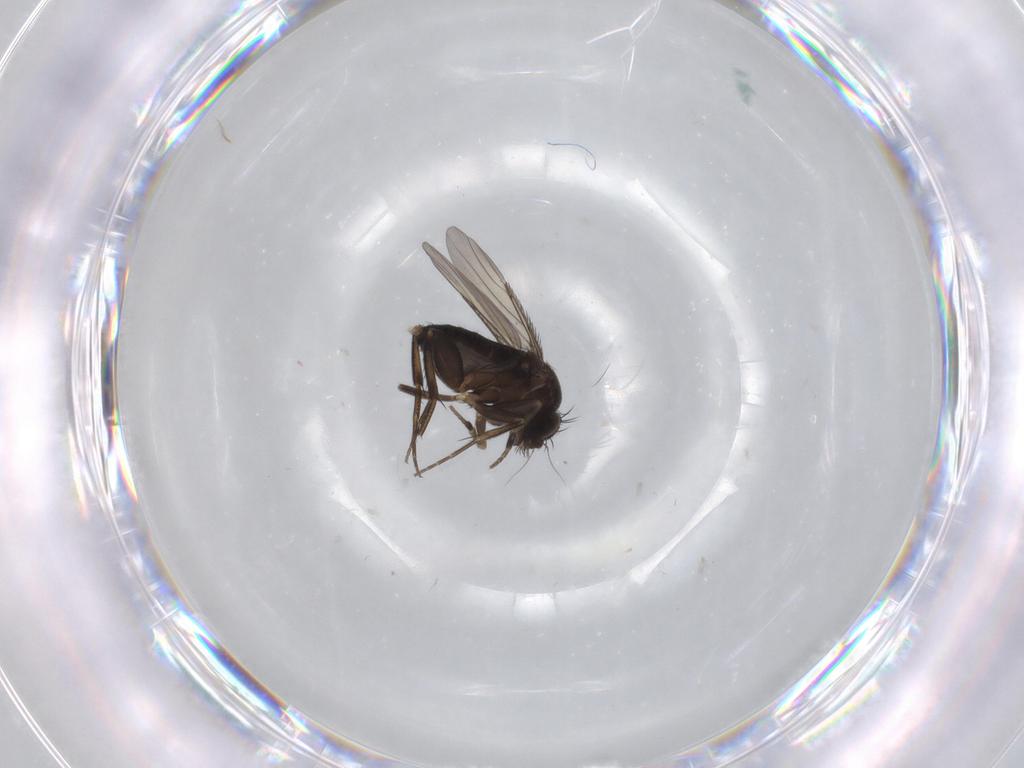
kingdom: Animalia
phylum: Arthropoda
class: Insecta
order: Diptera
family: Phoridae
